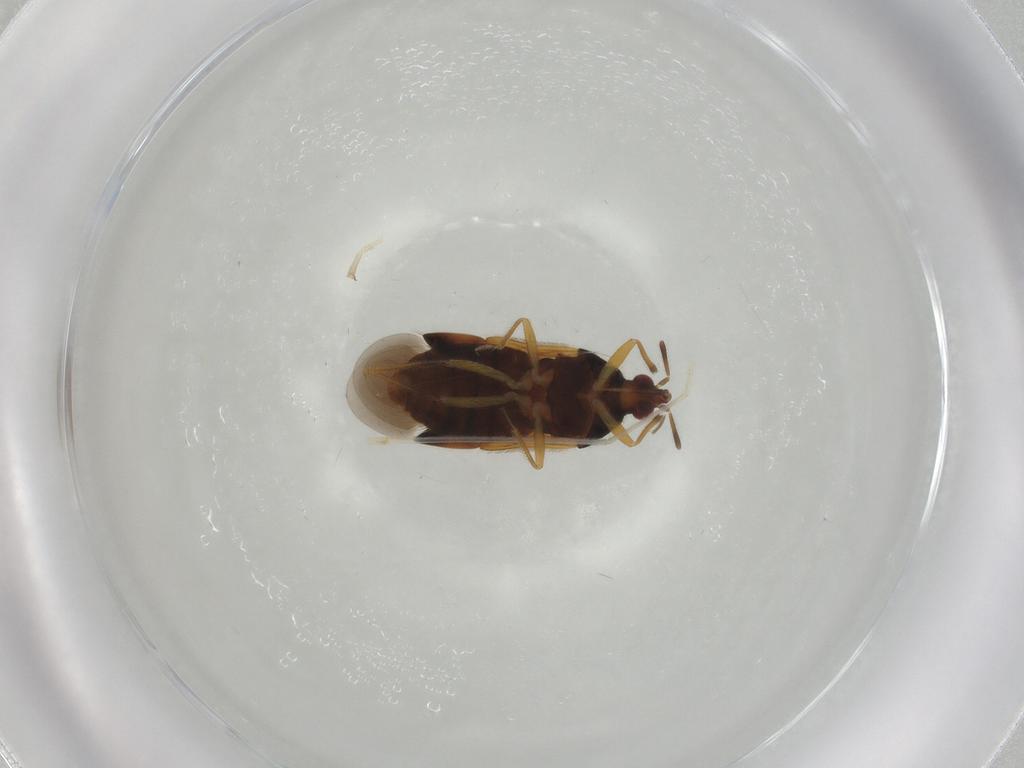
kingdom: Animalia
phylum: Arthropoda
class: Insecta
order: Hemiptera
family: Anthocoridae
